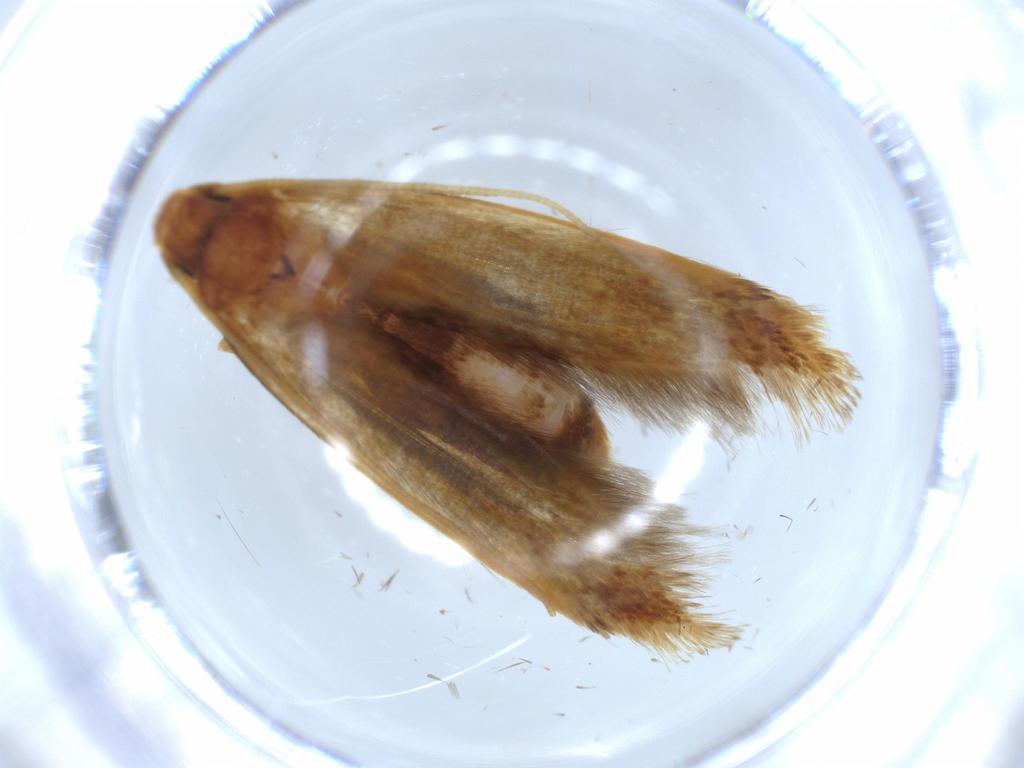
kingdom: Animalia
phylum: Arthropoda
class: Insecta
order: Lepidoptera
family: Tineidae
